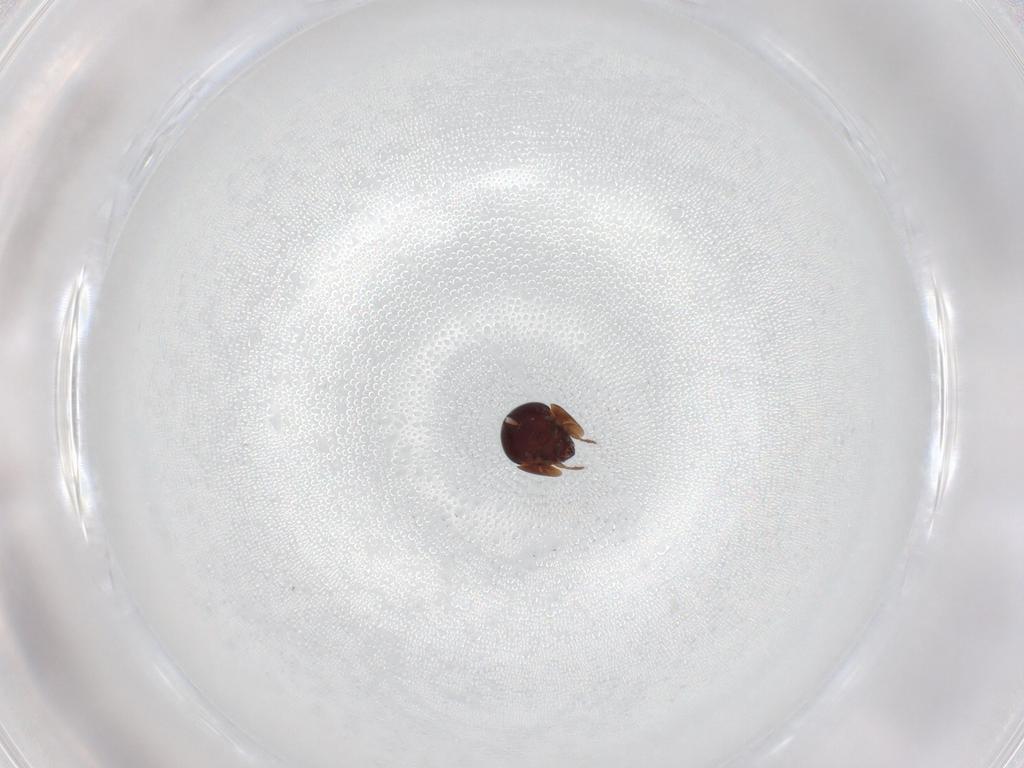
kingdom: Animalia
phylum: Arthropoda
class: Arachnida
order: Sarcoptiformes
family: Galumnidae
